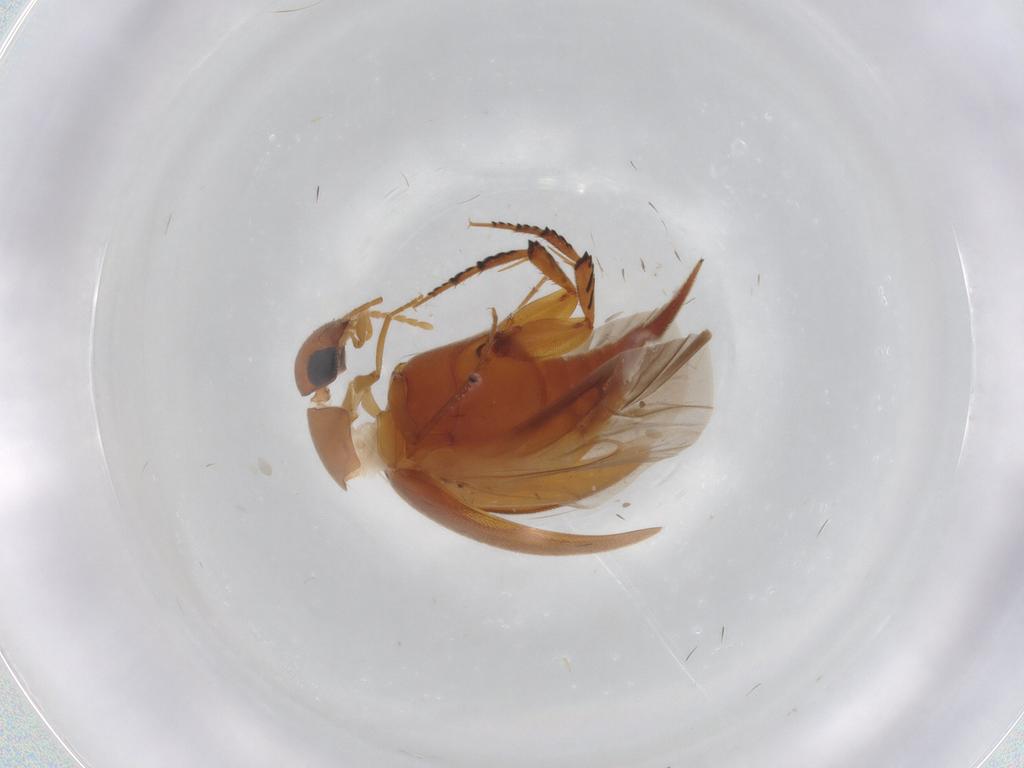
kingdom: Animalia
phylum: Arthropoda
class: Insecta
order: Coleoptera
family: Mordellidae
